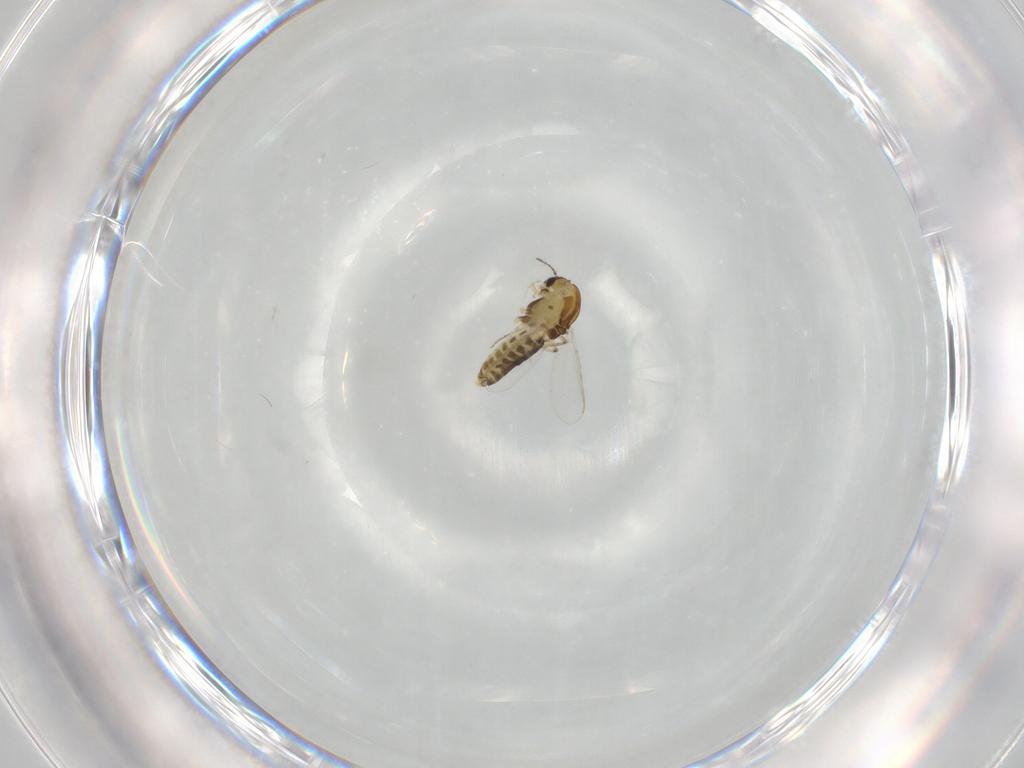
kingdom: Animalia
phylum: Arthropoda
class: Insecta
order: Diptera
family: Chironomidae
